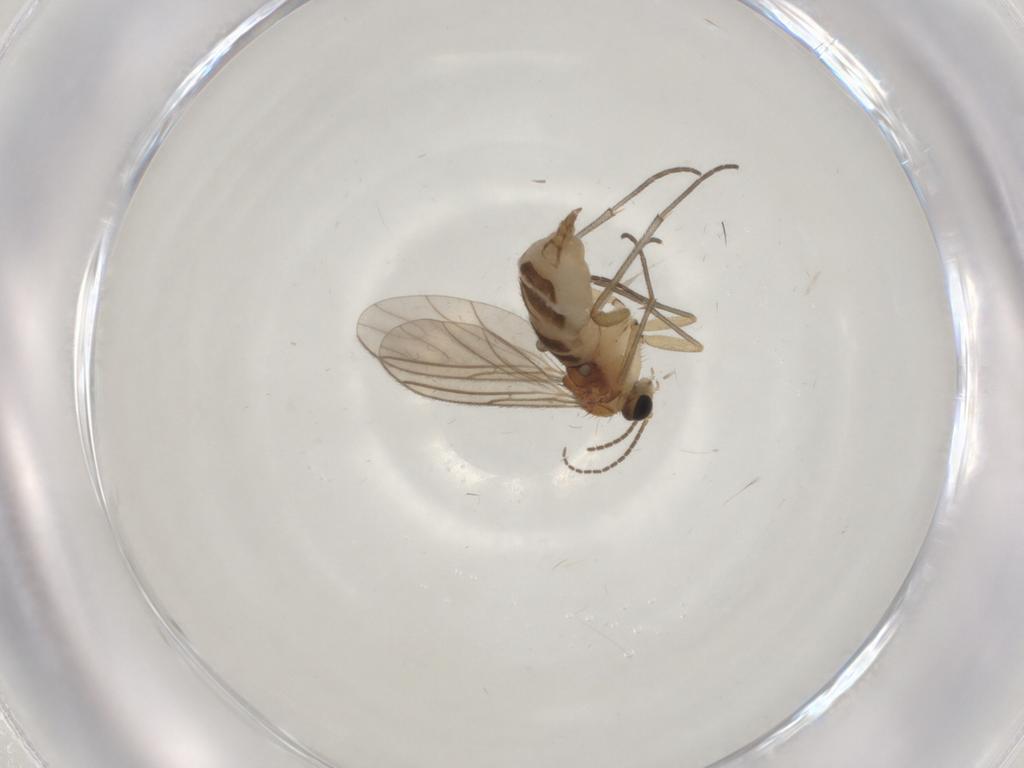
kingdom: Animalia
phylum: Arthropoda
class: Insecta
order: Diptera
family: Sciaridae
